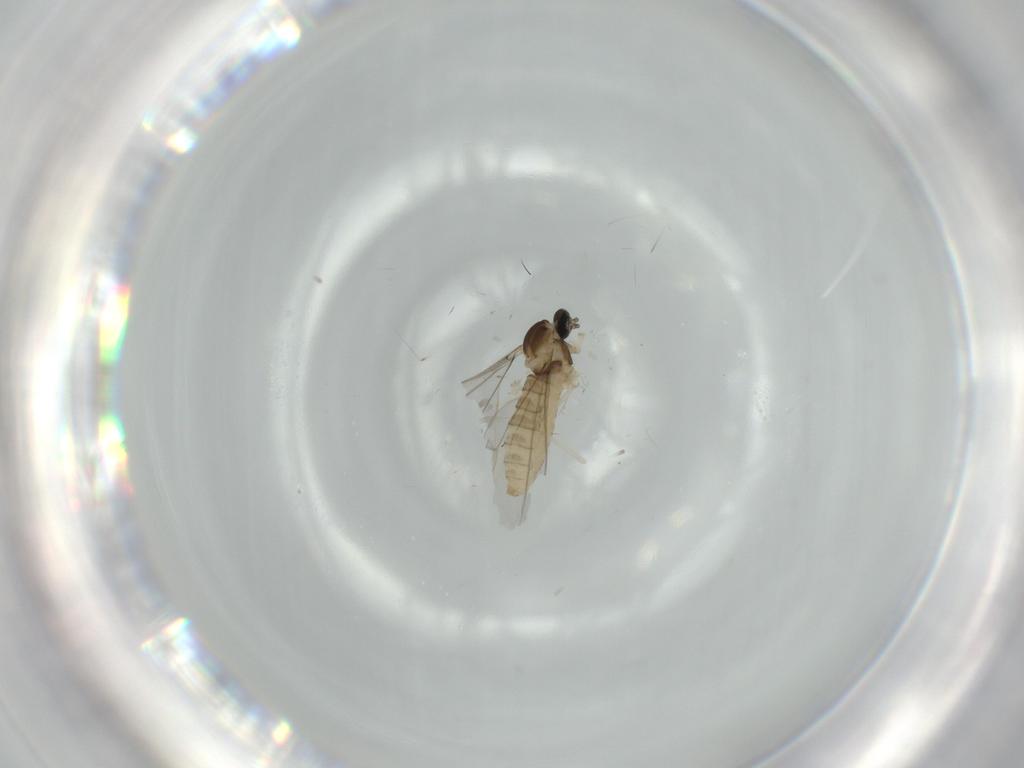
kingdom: Animalia
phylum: Arthropoda
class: Insecta
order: Diptera
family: Cecidomyiidae
